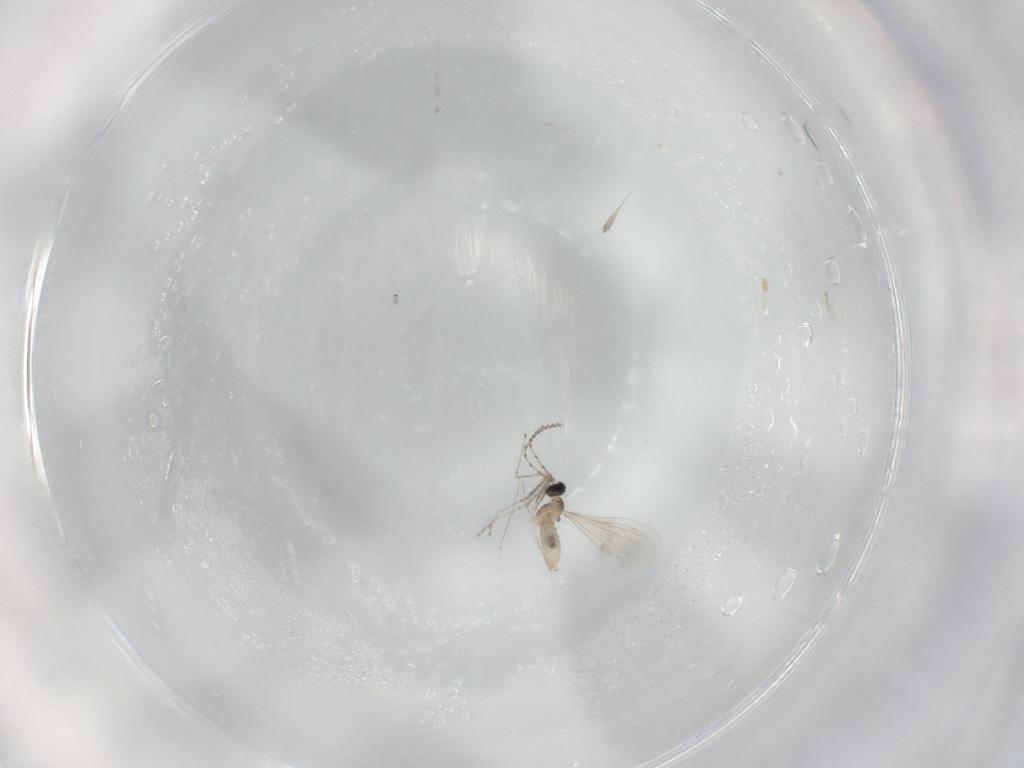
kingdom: Animalia
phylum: Arthropoda
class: Insecta
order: Diptera
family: Cecidomyiidae
